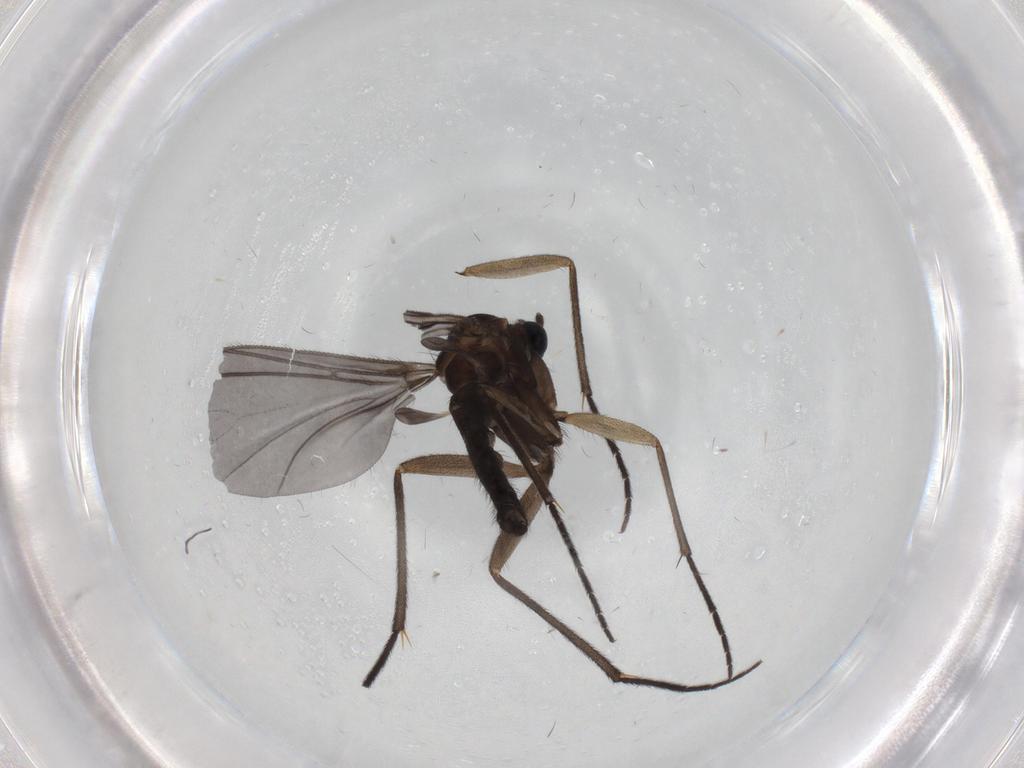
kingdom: Animalia
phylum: Arthropoda
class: Insecta
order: Diptera
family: Sciaridae
